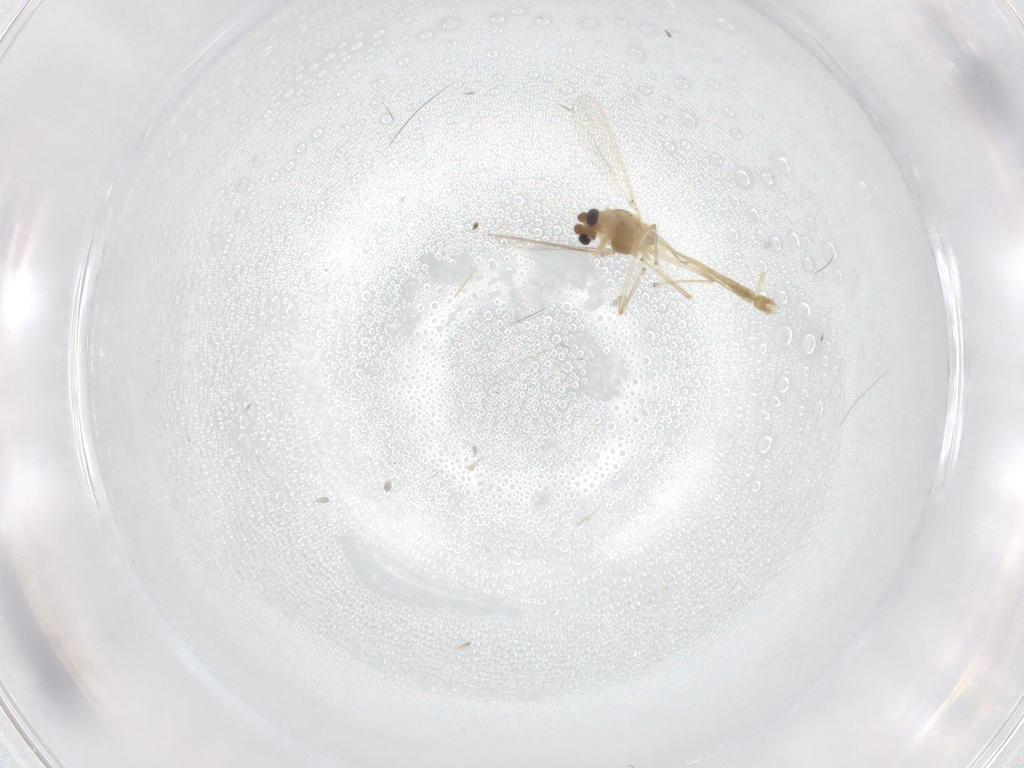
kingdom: Animalia
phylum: Arthropoda
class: Insecta
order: Diptera
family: Chironomidae
